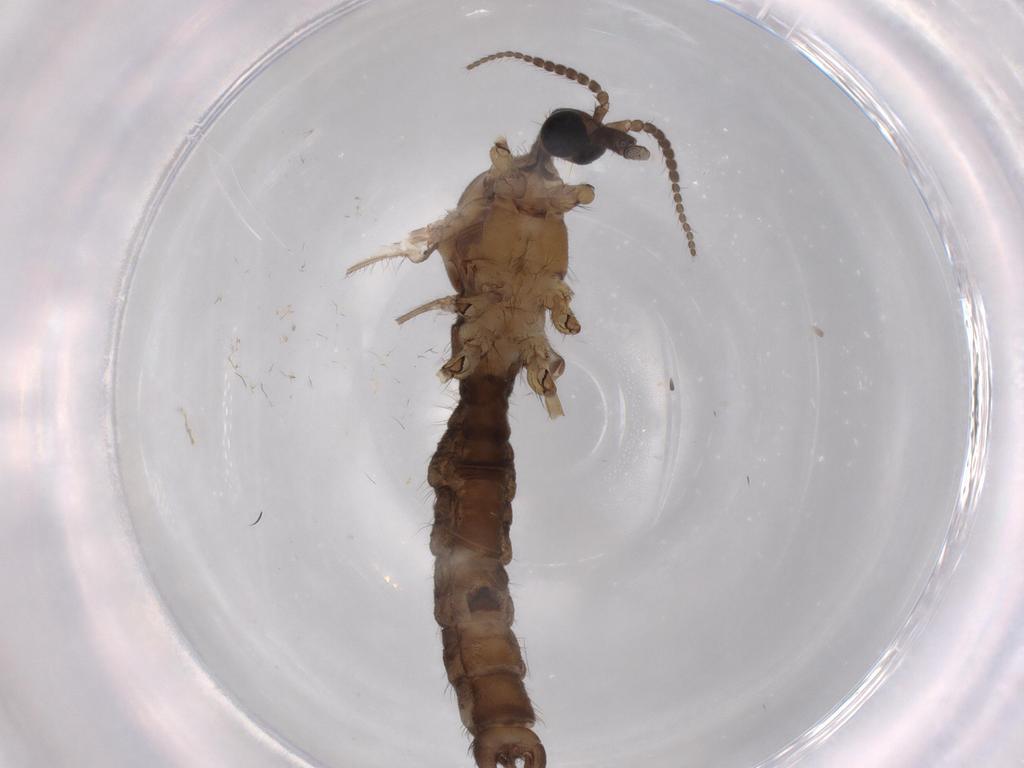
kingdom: Animalia
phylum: Arthropoda
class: Insecta
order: Diptera
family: Limoniidae
